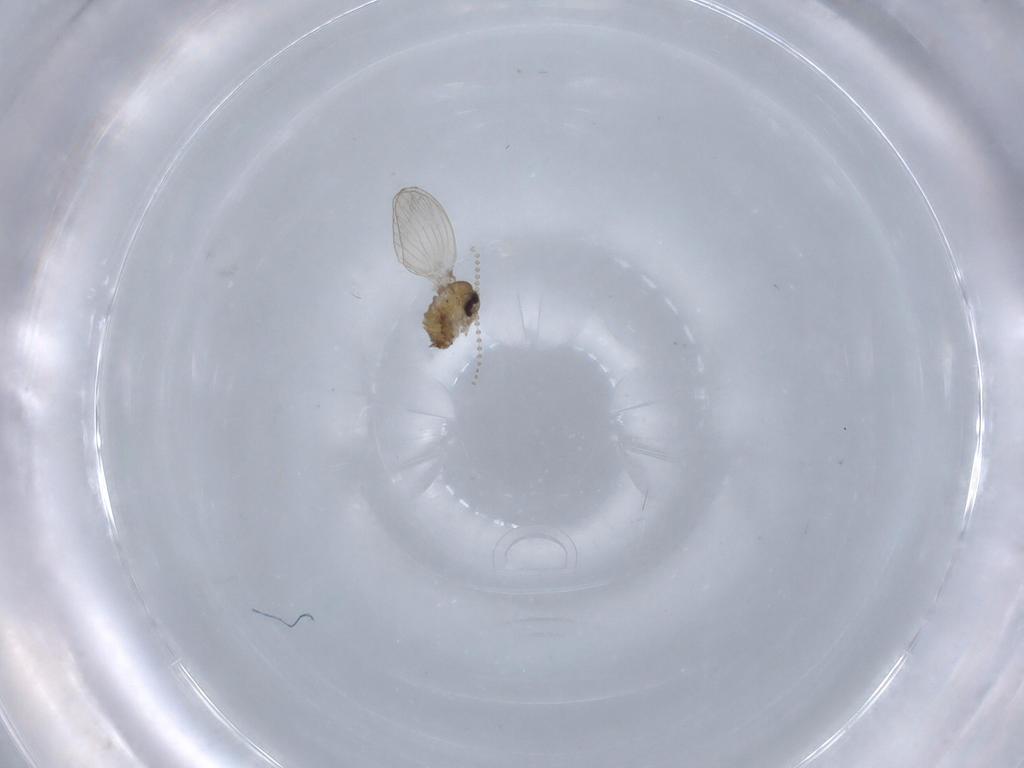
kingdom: Animalia
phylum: Arthropoda
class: Insecta
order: Diptera
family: Psychodidae
